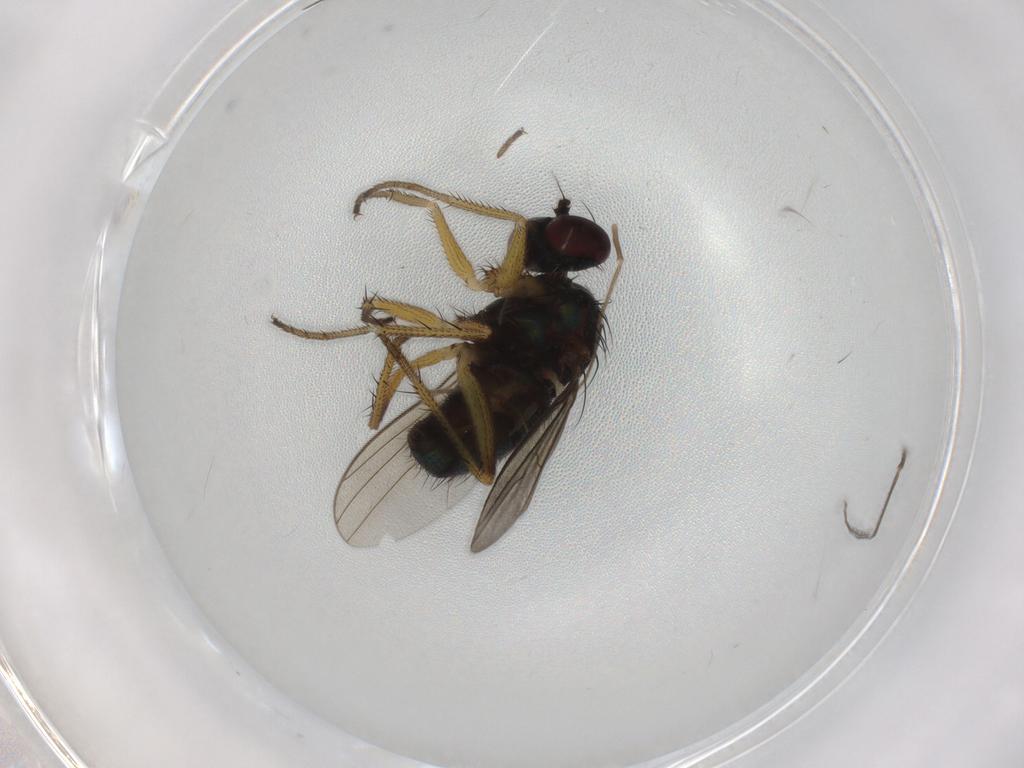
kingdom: Animalia
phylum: Arthropoda
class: Insecta
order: Diptera
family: Dolichopodidae
